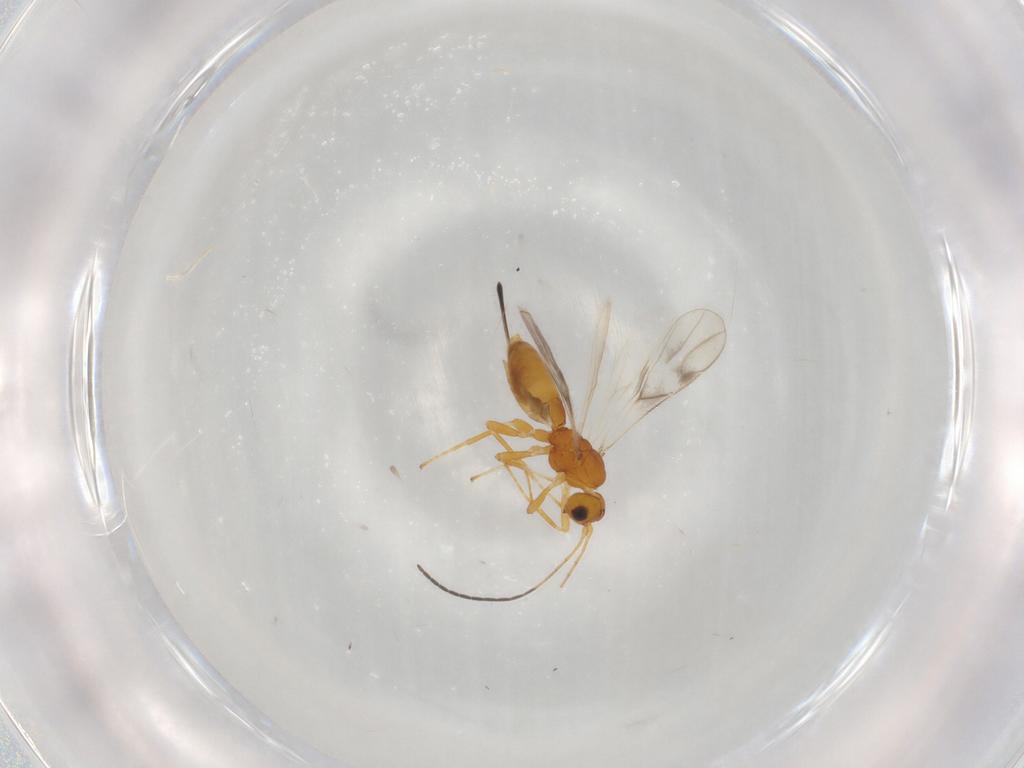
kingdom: Animalia
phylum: Arthropoda
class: Insecta
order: Hymenoptera
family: Braconidae
